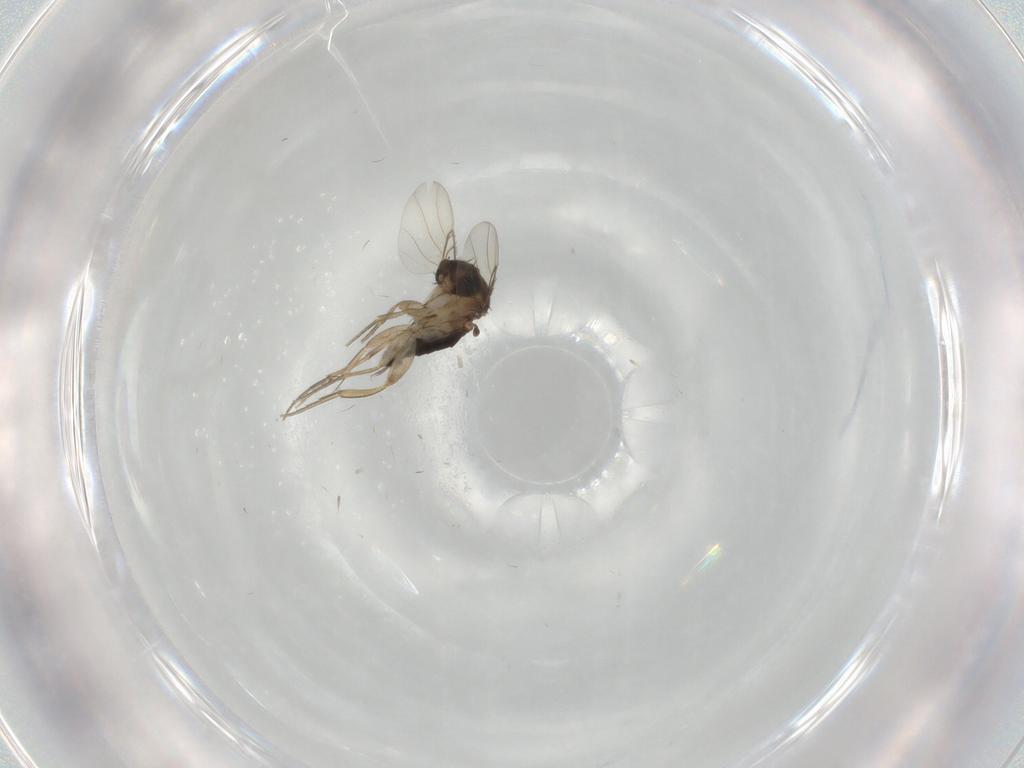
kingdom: Animalia
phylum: Arthropoda
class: Insecta
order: Diptera
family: Phoridae
